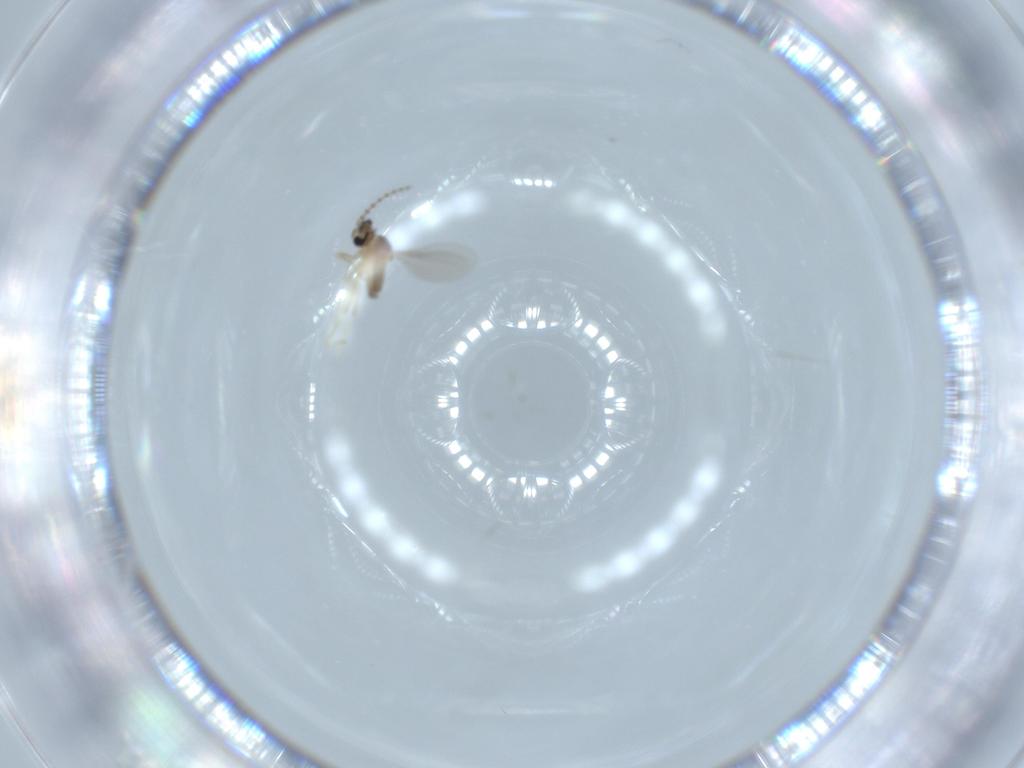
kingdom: Animalia
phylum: Arthropoda
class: Insecta
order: Diptera
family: Cecidomyiidae
